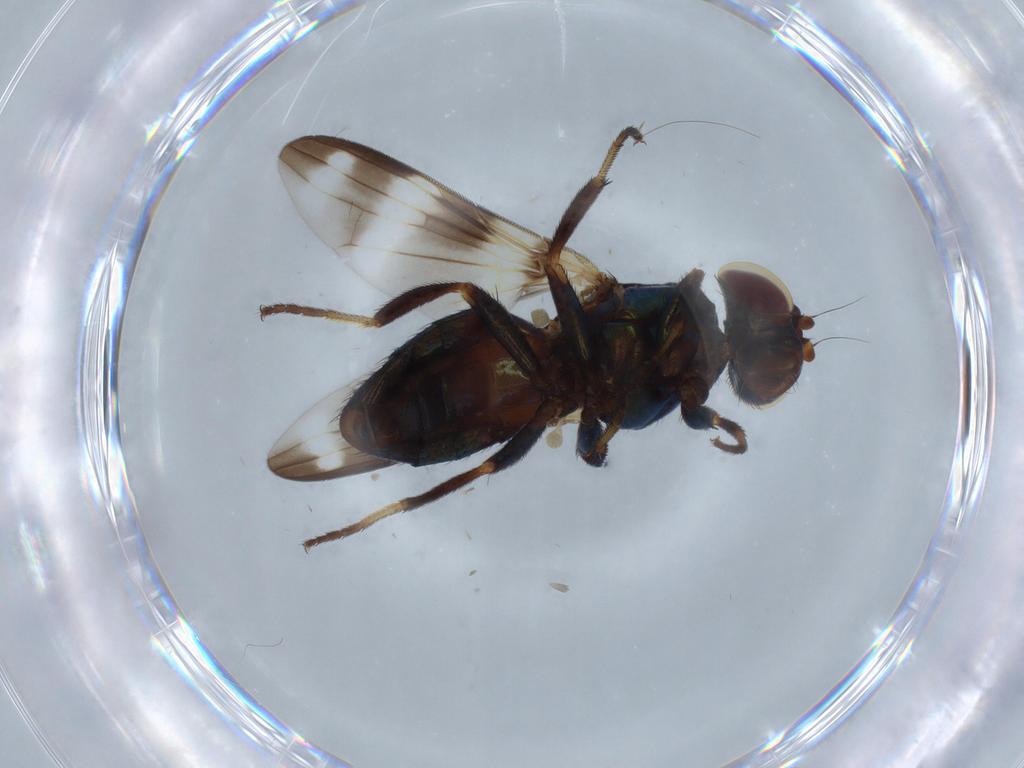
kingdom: Animalia
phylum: Arthropoda
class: Insecta
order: Diptera
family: Ulidiidae
